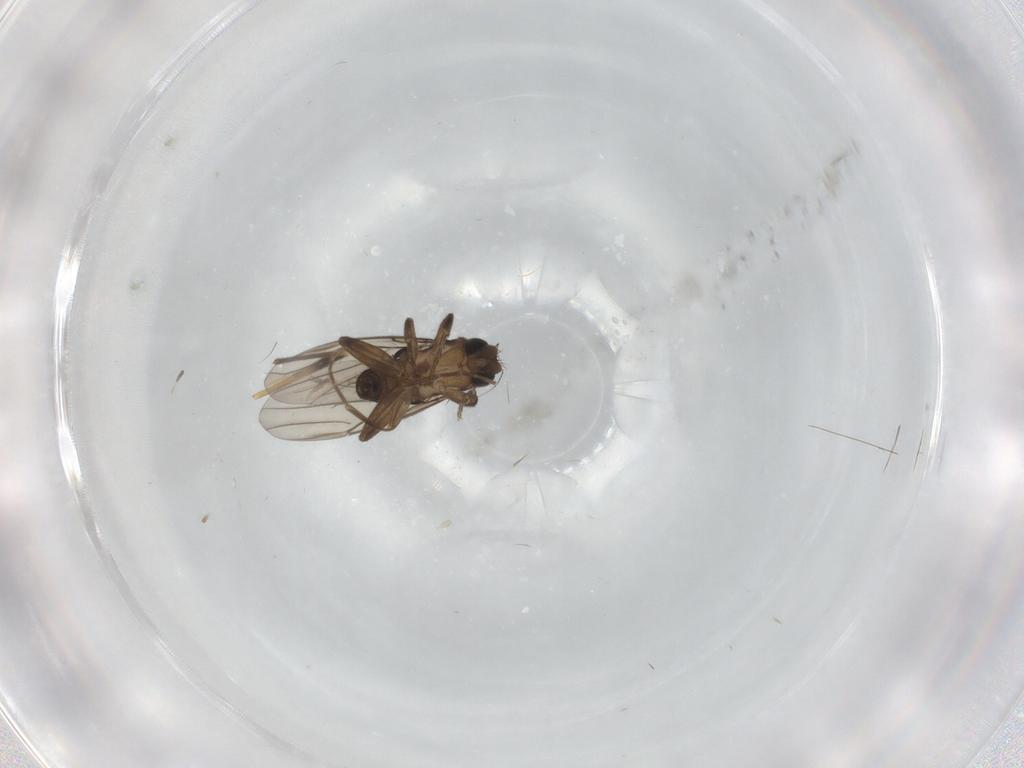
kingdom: Animalia
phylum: Arthropoda
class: Insecta
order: Diptera
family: Phoridae
